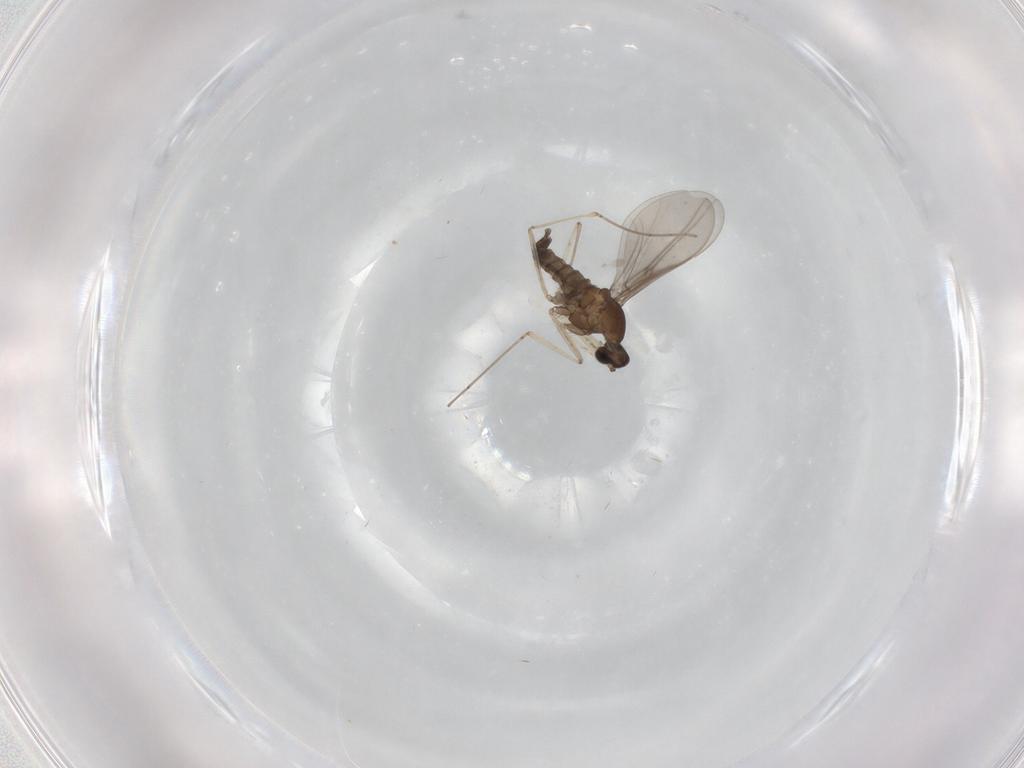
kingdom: Animalia
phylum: Arthropoda
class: Insecta
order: Diptera
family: Cecidomyiidae
